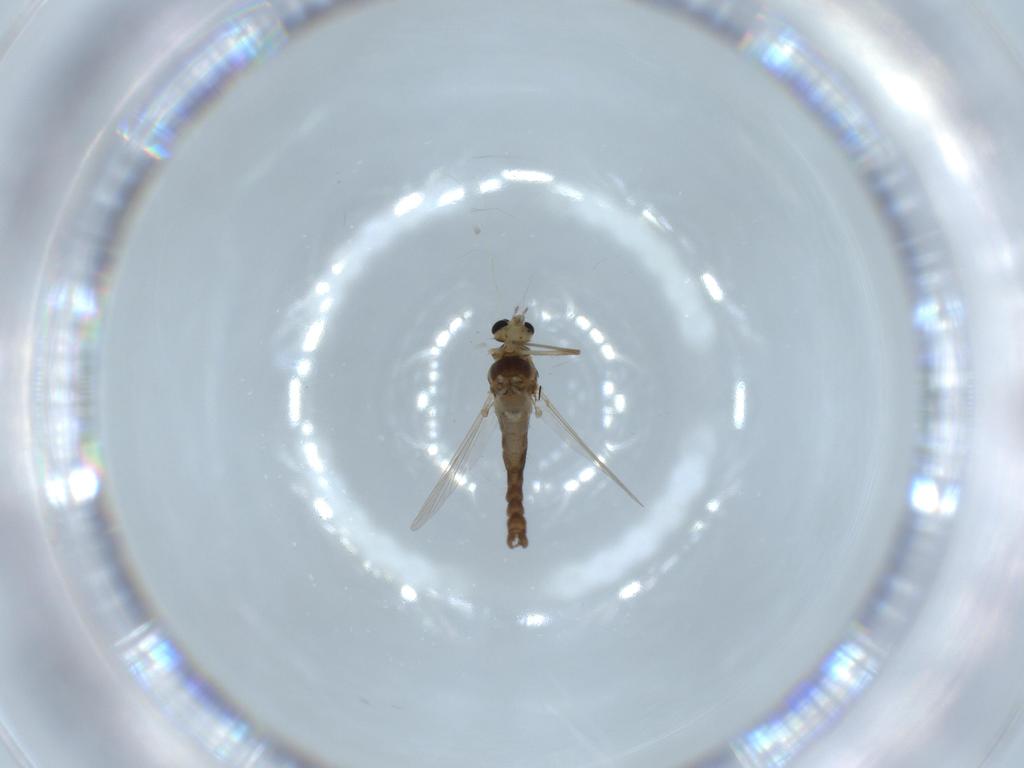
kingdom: Animalia
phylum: Arthropoda
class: Insecta
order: Diptera
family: Chironomidae
